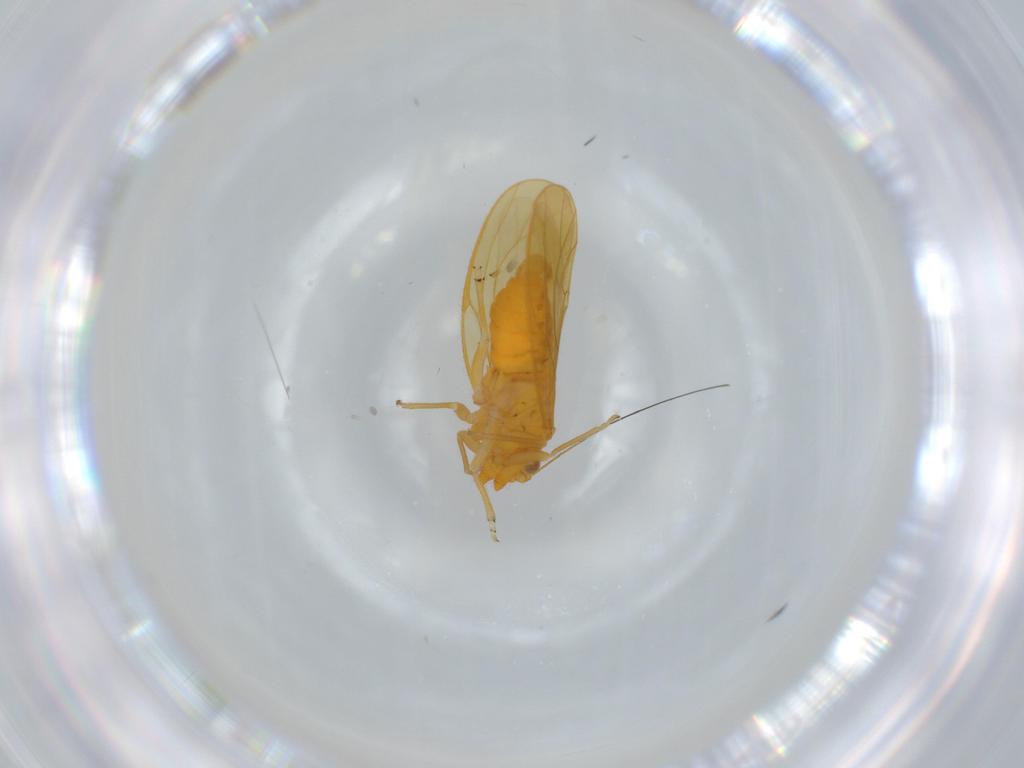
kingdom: Animalia
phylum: Arthropoda
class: Insecta
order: Hemiptera
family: Psyllidae
